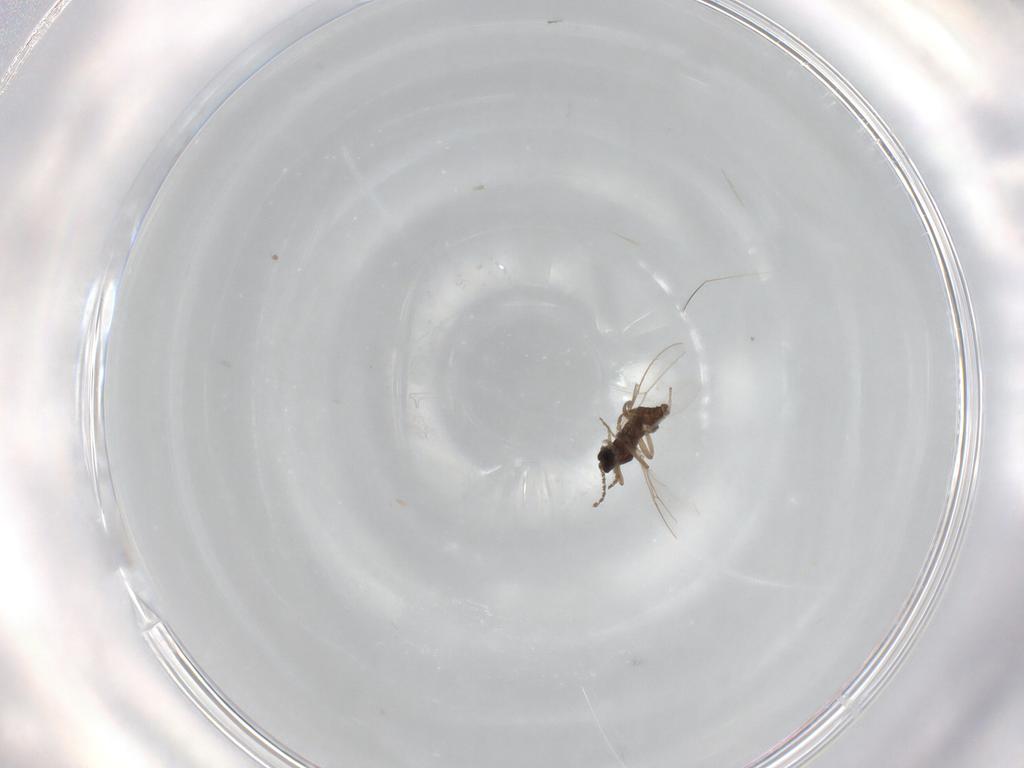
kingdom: Animalia
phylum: Arthropoda
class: Insecta
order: Diptera
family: Cecidomyiidae
